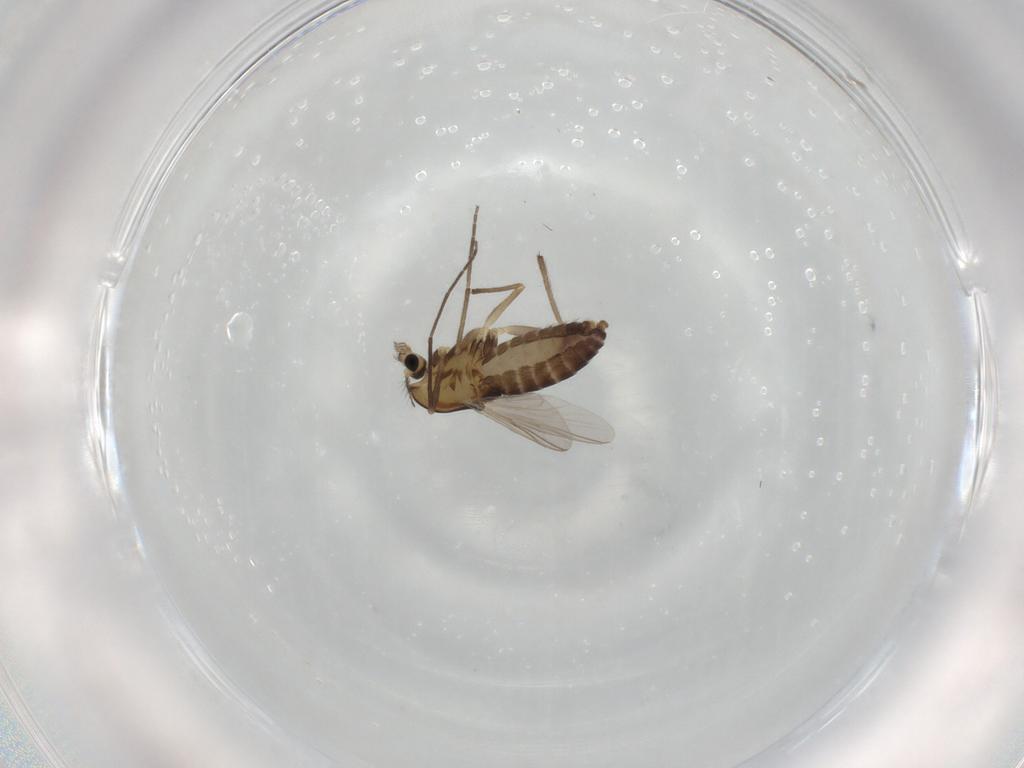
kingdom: Animalia
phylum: Arthropoda
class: Insecta
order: Diptera
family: Chironomidae
